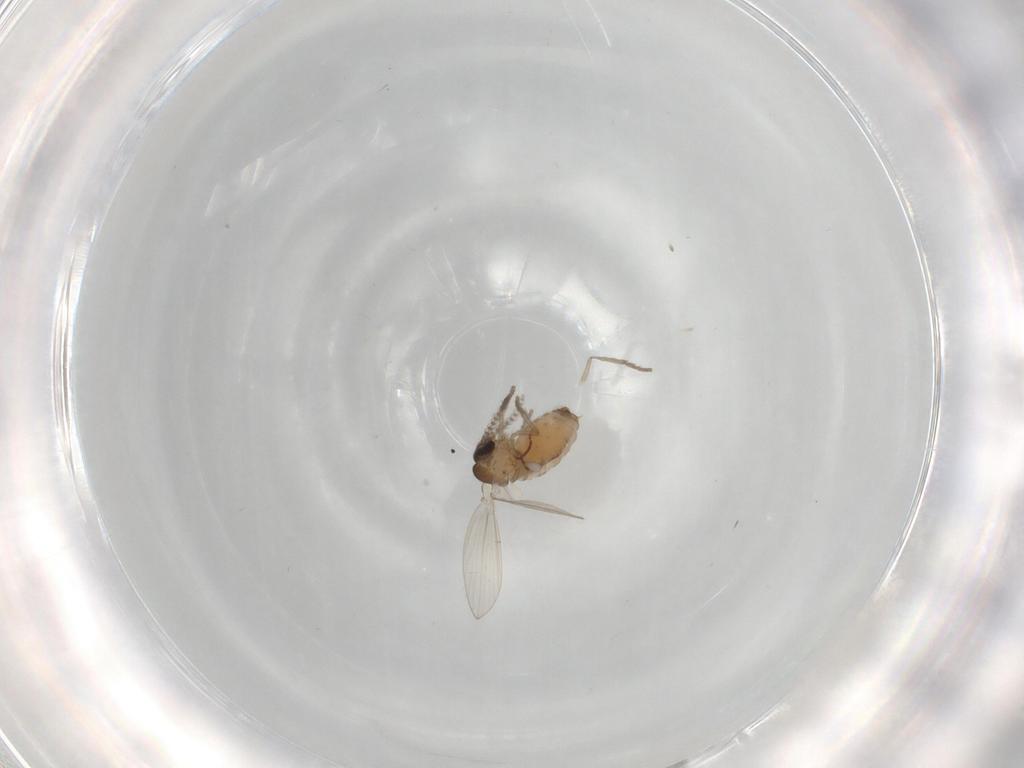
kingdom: Animalia
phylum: Arthropoda
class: Insecta
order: Diptera
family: Psychodidae
